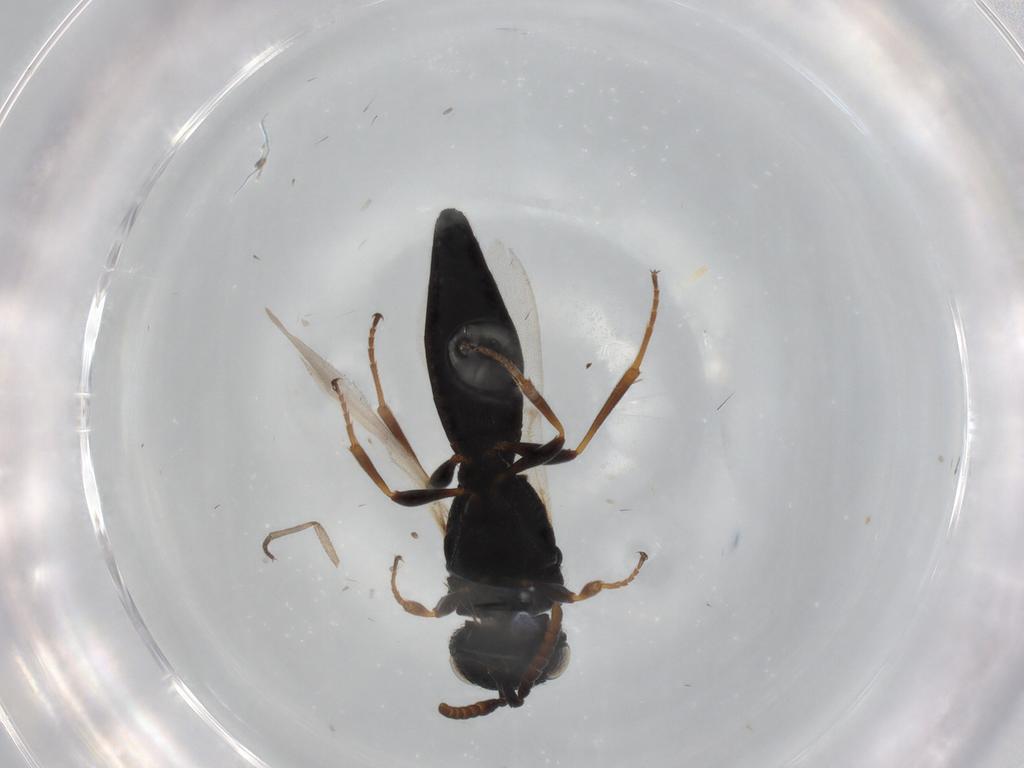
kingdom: Animalia
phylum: Arthropoda
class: Insecta
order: Hymenoptera
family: Scelionidae
